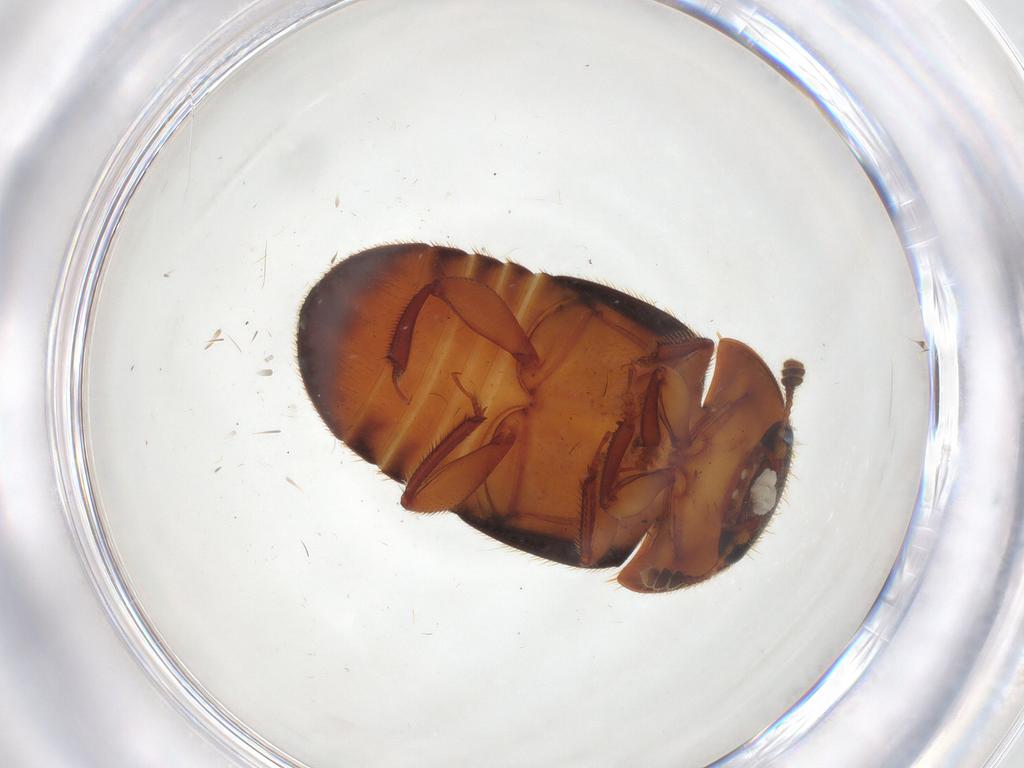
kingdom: Animalia
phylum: Arthropoda
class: Insecta
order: Coleoptera
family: Nitidulidae
